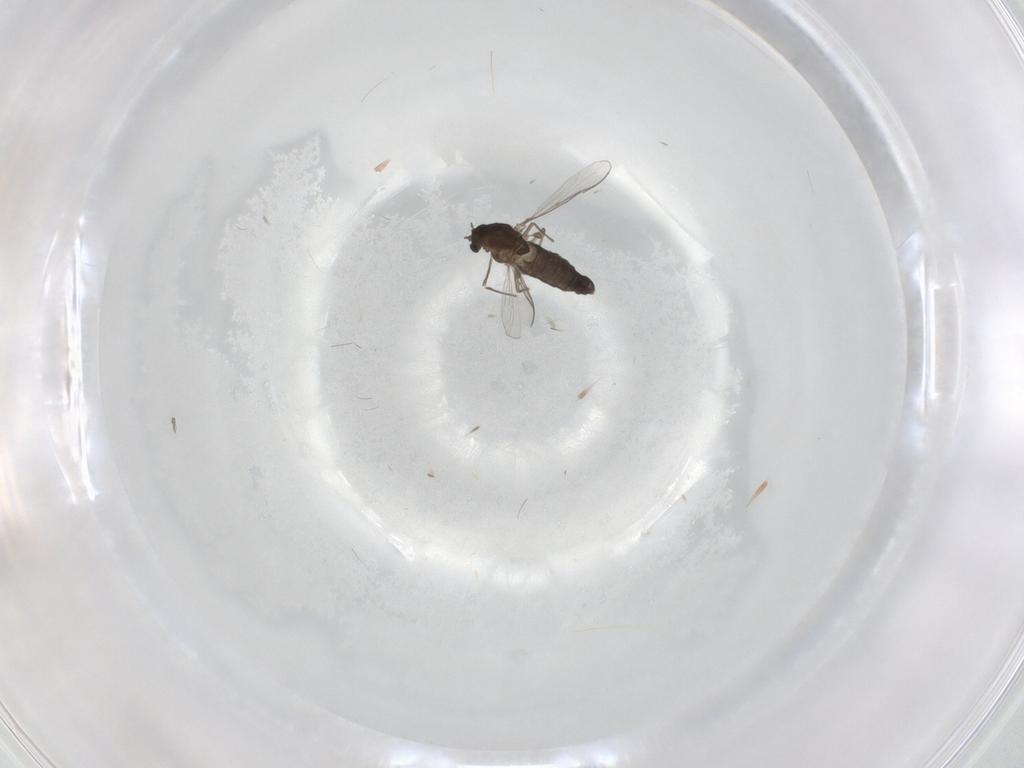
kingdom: Animalia
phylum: Arthropoda
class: Insecta
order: Diptera
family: Chironomidae
